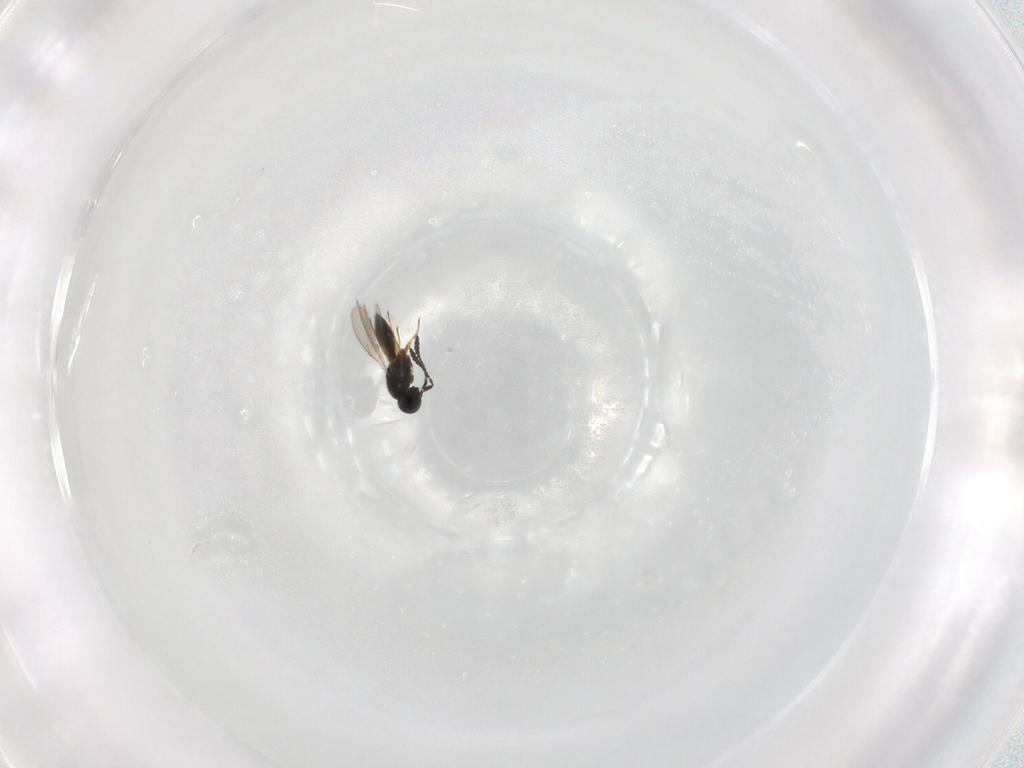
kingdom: Animalia
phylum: Arthropoda
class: Insecta
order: Hymenoptera
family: Scelionidae
